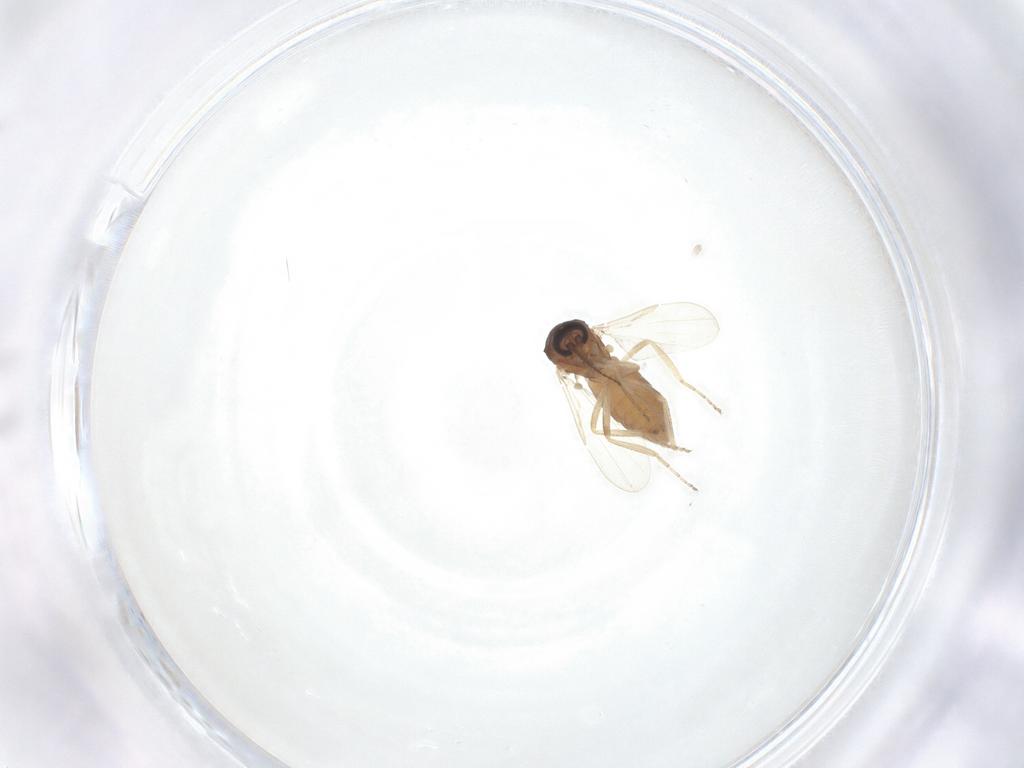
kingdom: Animalia
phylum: Arthropoda
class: Insecta
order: Diptera
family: Ceratopogonidae
